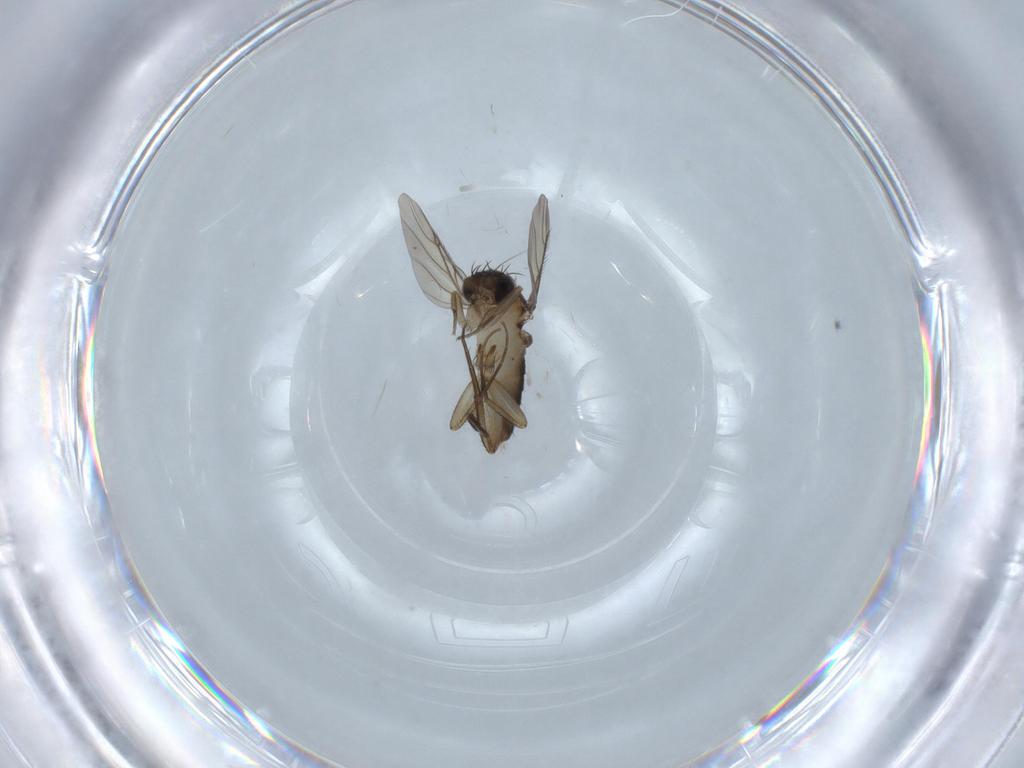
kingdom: Animalia
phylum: Arthropoda
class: Insecta
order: Diptera
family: Phoridae
